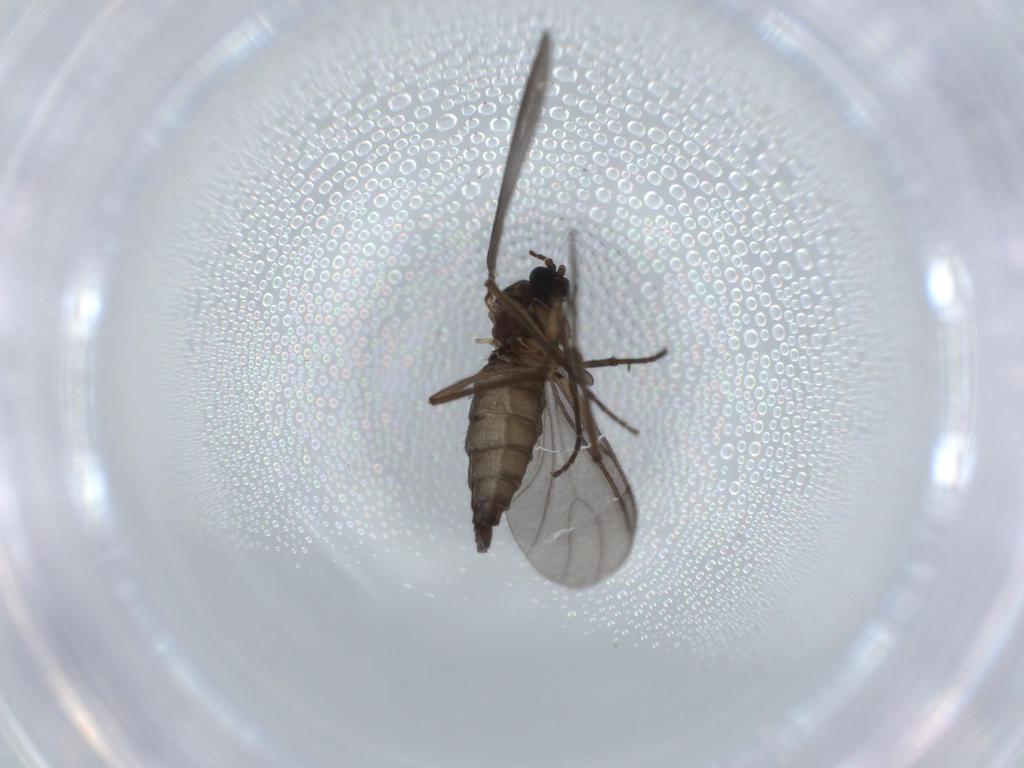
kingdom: Animalia
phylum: Arthropoda
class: Insecta
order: Diptera
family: Sciaridae
